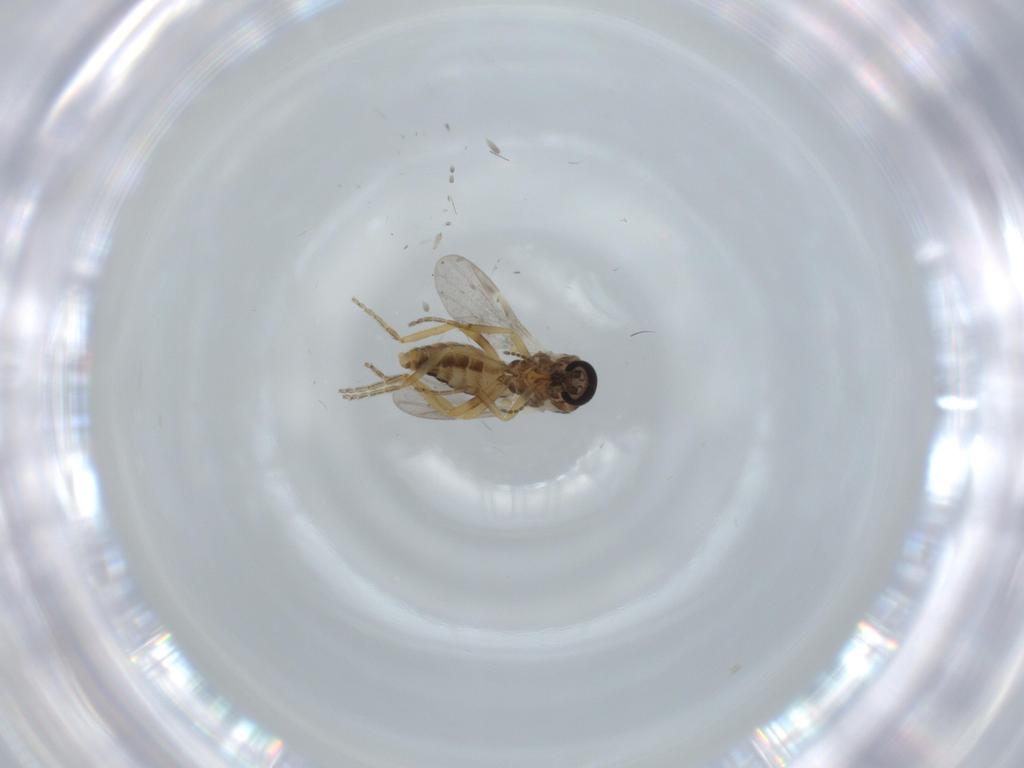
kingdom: Animalia
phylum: Arthropoda
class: Insecta
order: Diptera
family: Ceratopogonidae
